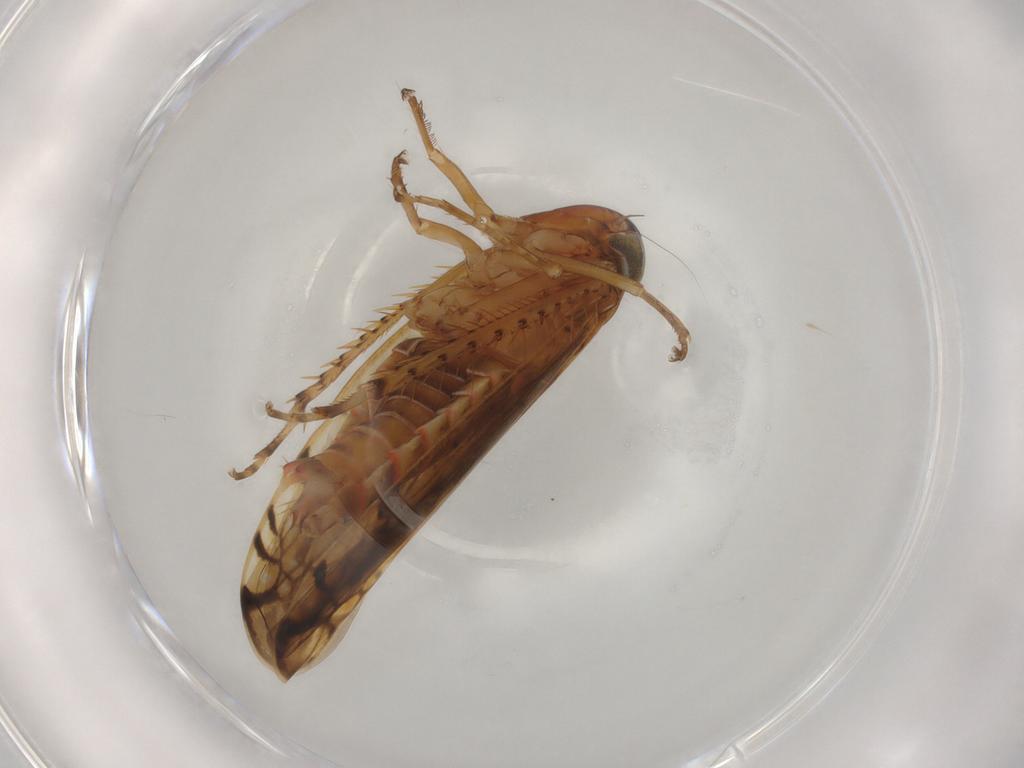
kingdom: Animalia
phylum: Arthropoda
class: Insecta
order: Hemiptera
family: Cicadellidae
